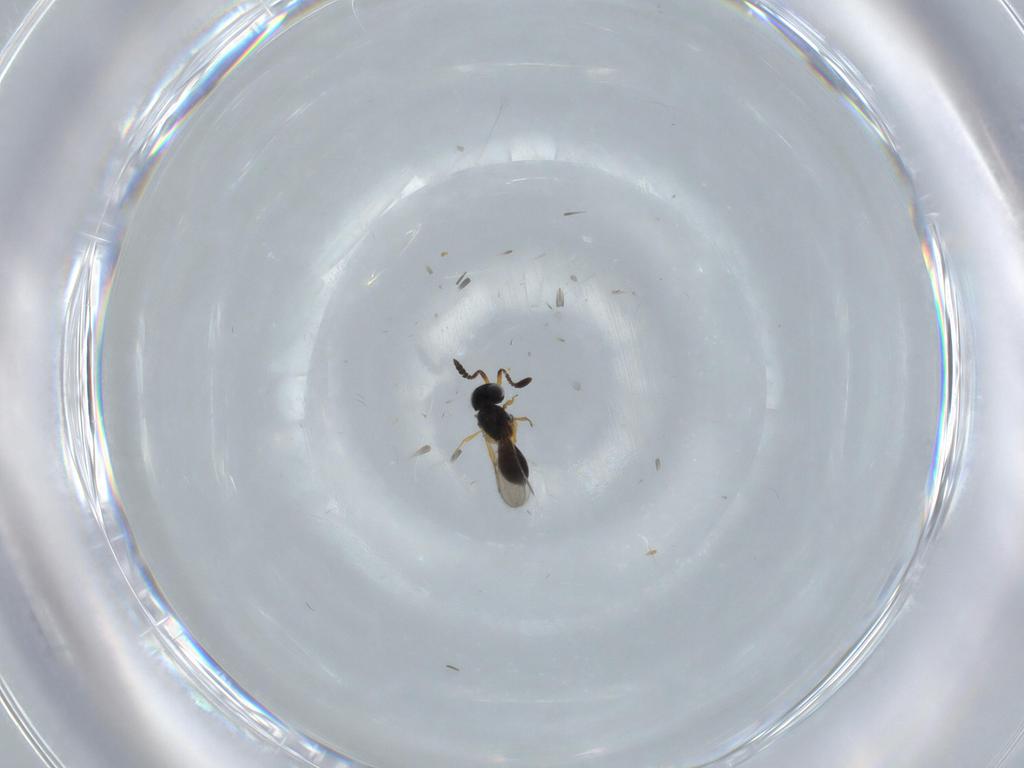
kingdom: Animalia
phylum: Arthropoda
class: Insecta
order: Hymenoptera
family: Scelionidae
